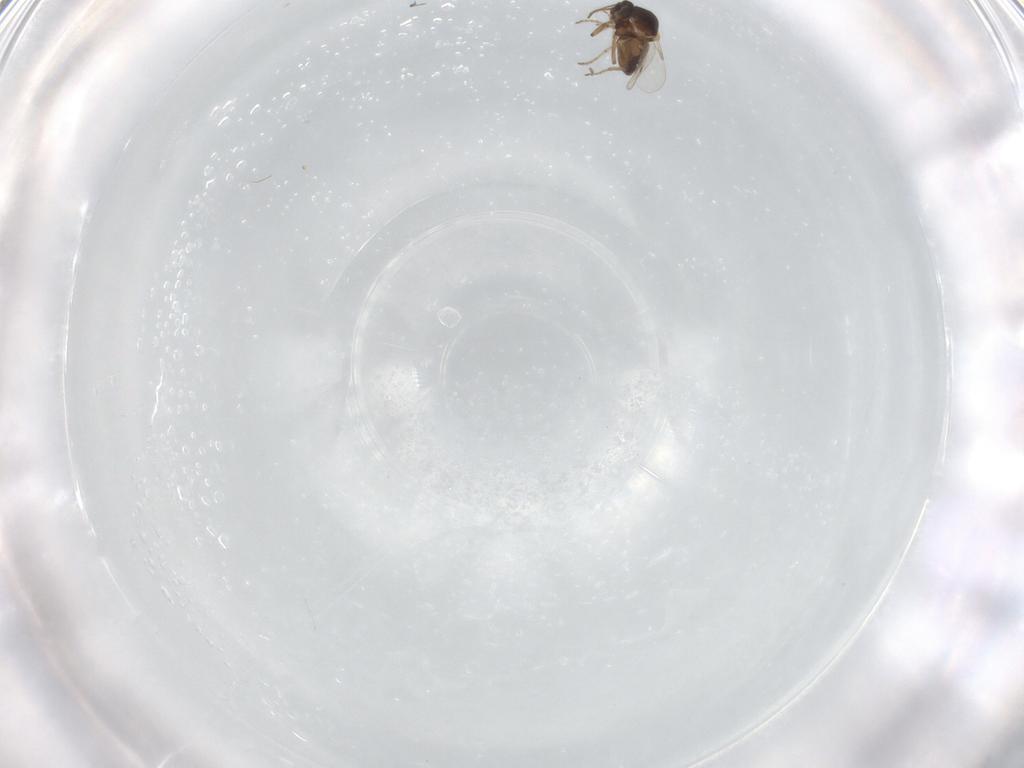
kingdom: Animalia
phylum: Arthropoda
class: Insecta
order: Diptera
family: Ceratopogonidae
